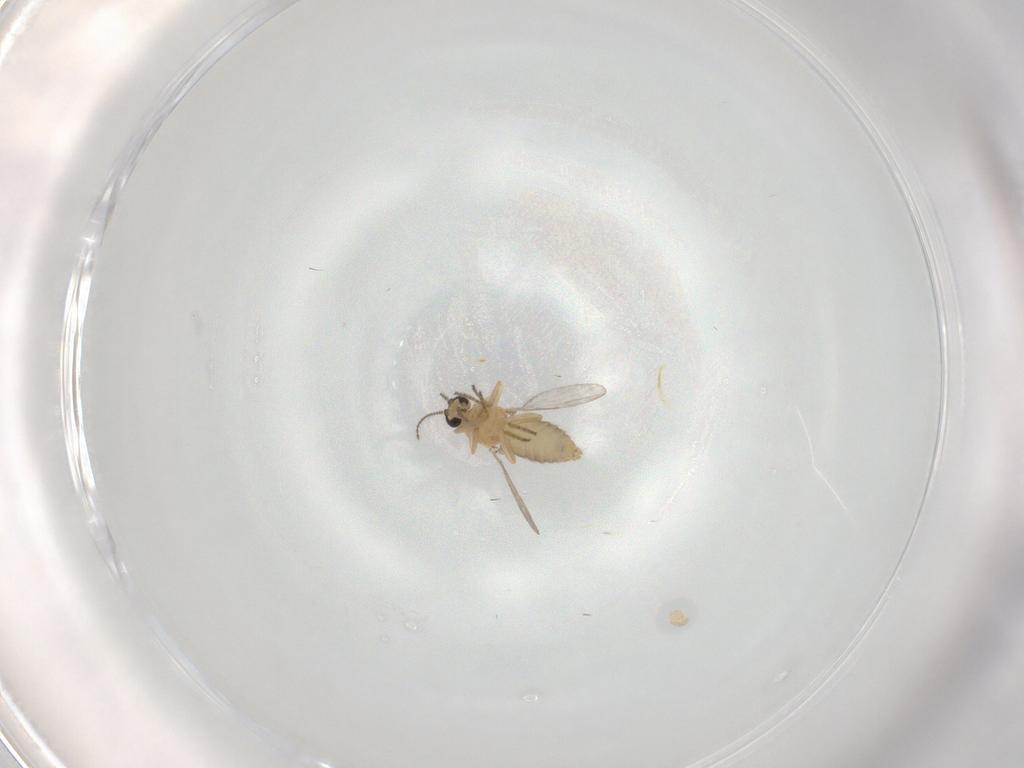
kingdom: Animalia
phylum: Arthropoda
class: Insecta
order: Diptera
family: Ceratopogonidae
